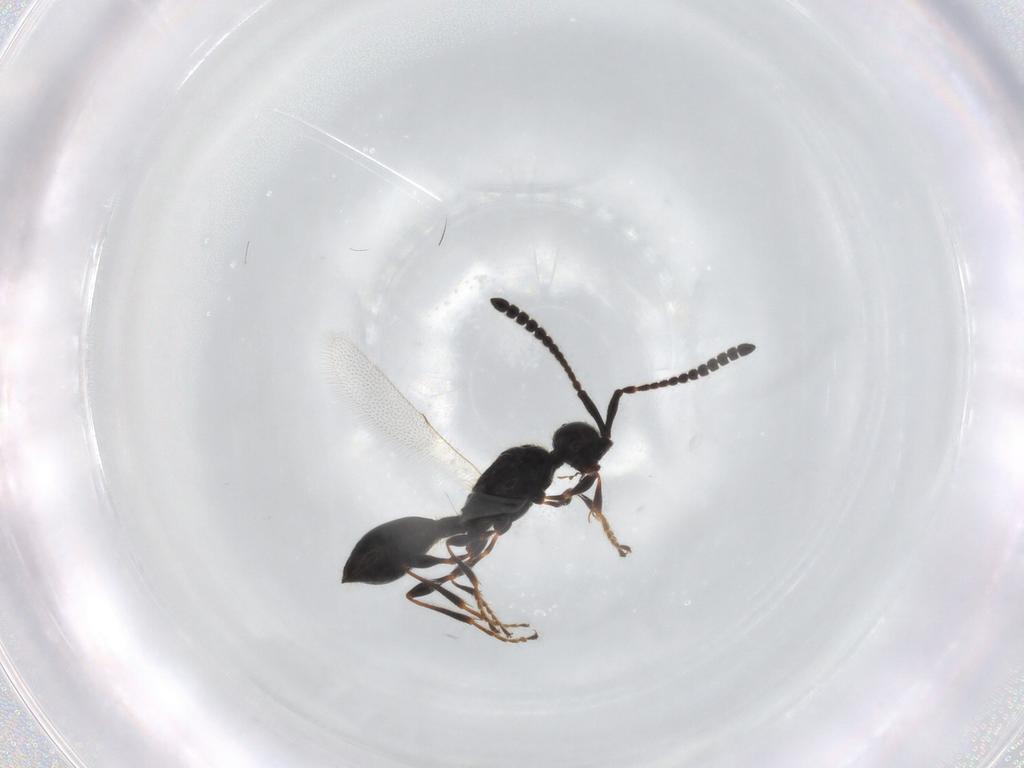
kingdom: Animalia
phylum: Arthropoda
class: Insecta
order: Hymenoptera
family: Diapriidae
